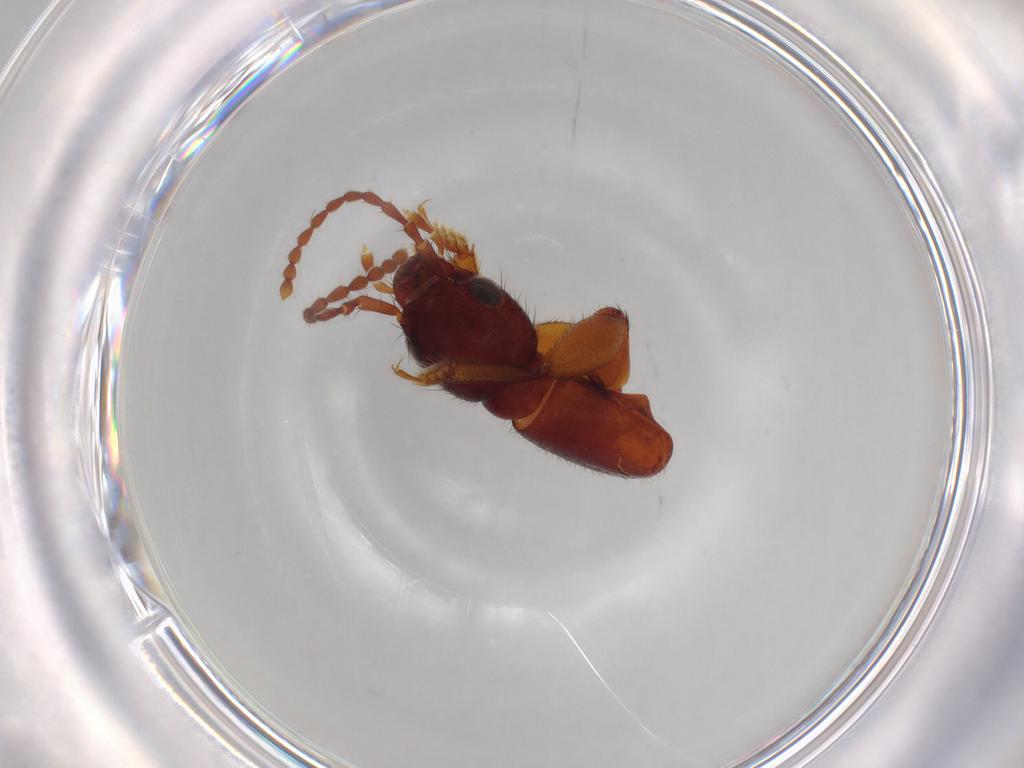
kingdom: Animalia
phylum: Arthropoda
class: Insecta
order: Coleoptera
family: Staphylinidae
